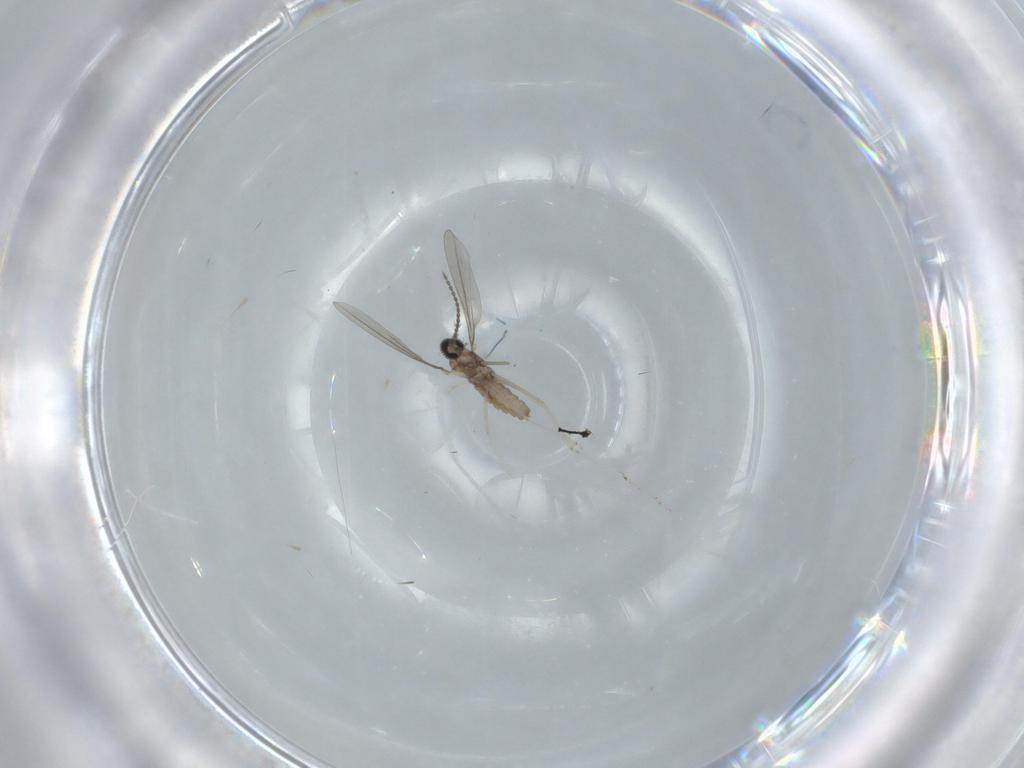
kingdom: Animalia
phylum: Arthropoda
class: Insecta
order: Diptera
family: Cecidomyiidae
